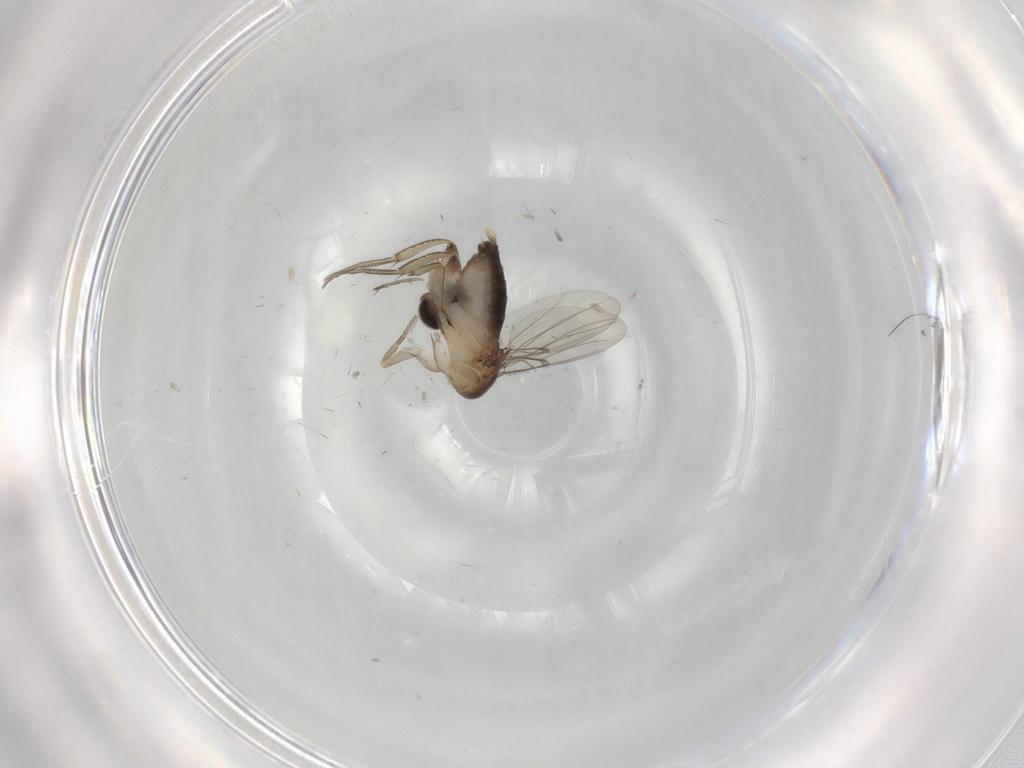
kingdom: Animalia
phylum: Arthropoda
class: Insecta
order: Diptera
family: Phoridae
